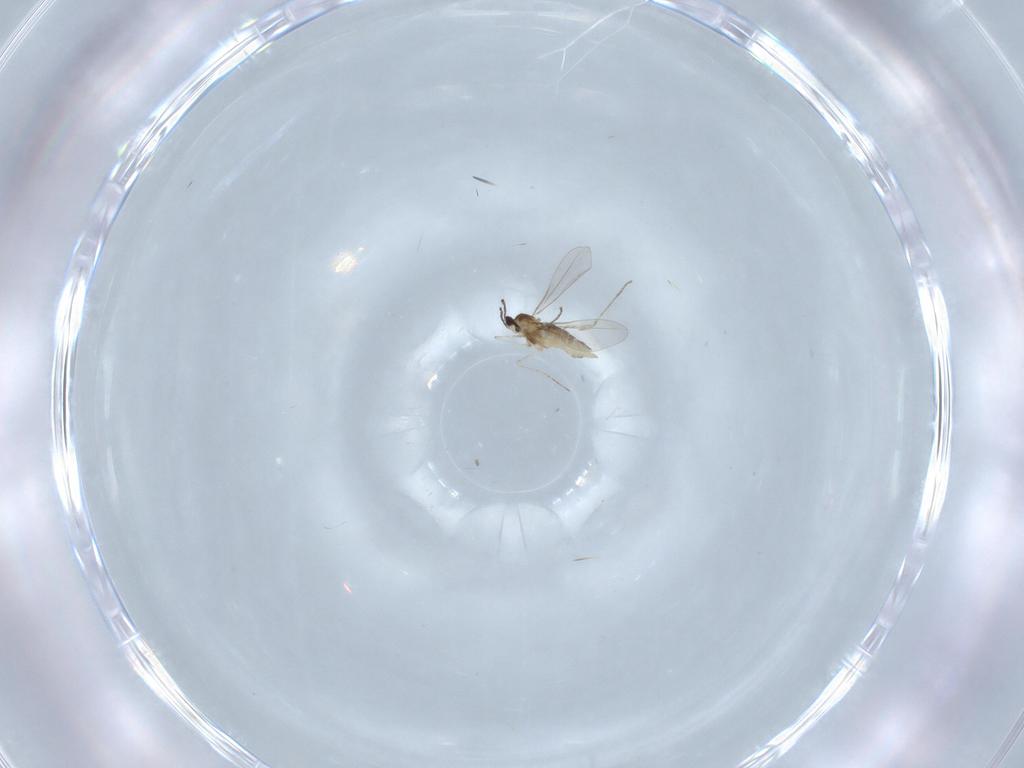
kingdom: Animalia
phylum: Arthropoda
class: Insecta
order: Diptera
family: Cecidomyiidae
